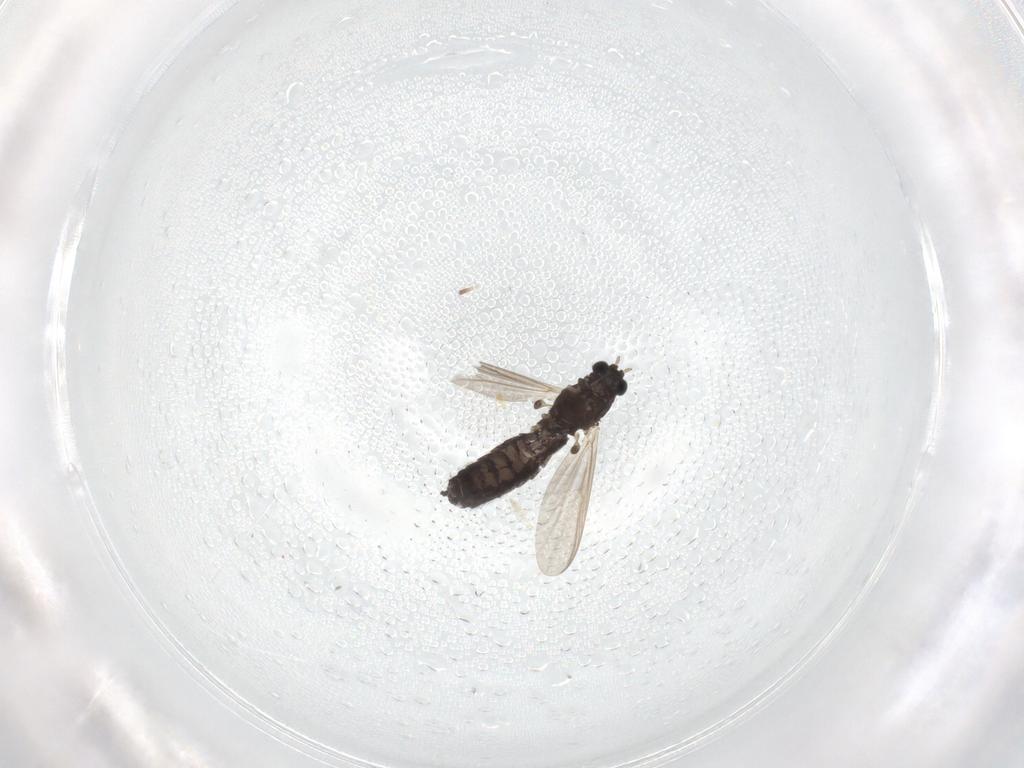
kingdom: Animalia
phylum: Arthropoda
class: Insecta
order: Diptera
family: Chironomidae
